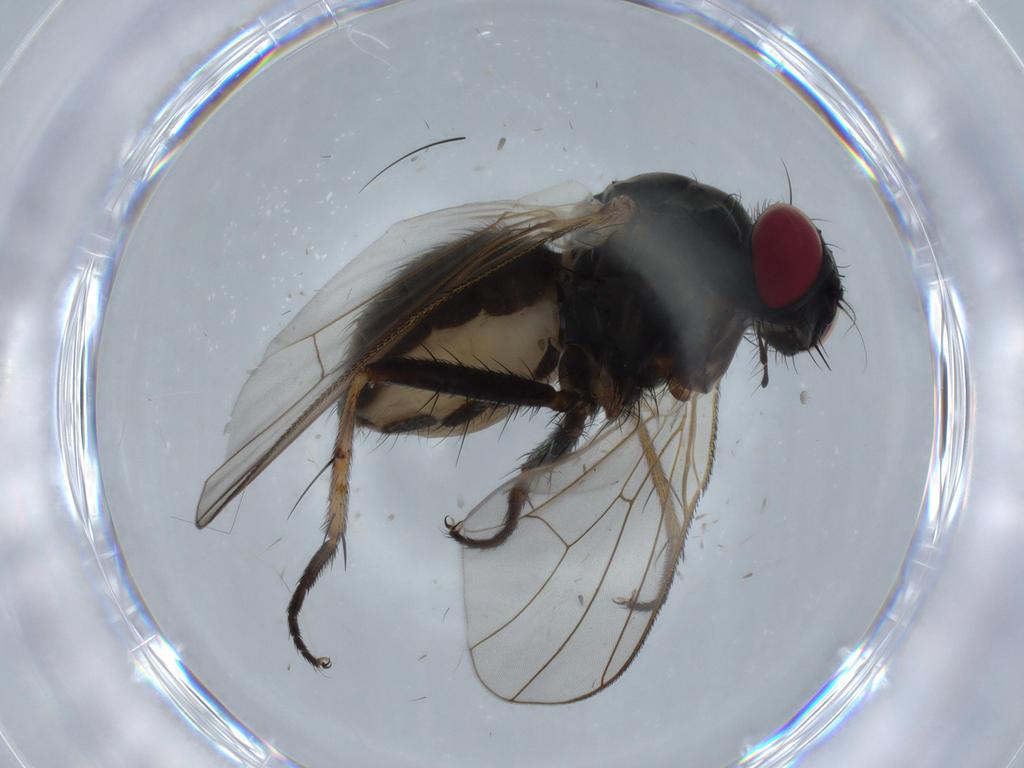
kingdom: Animalia
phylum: Arthropoda
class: Insecta
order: Diptera
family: Muscidae
